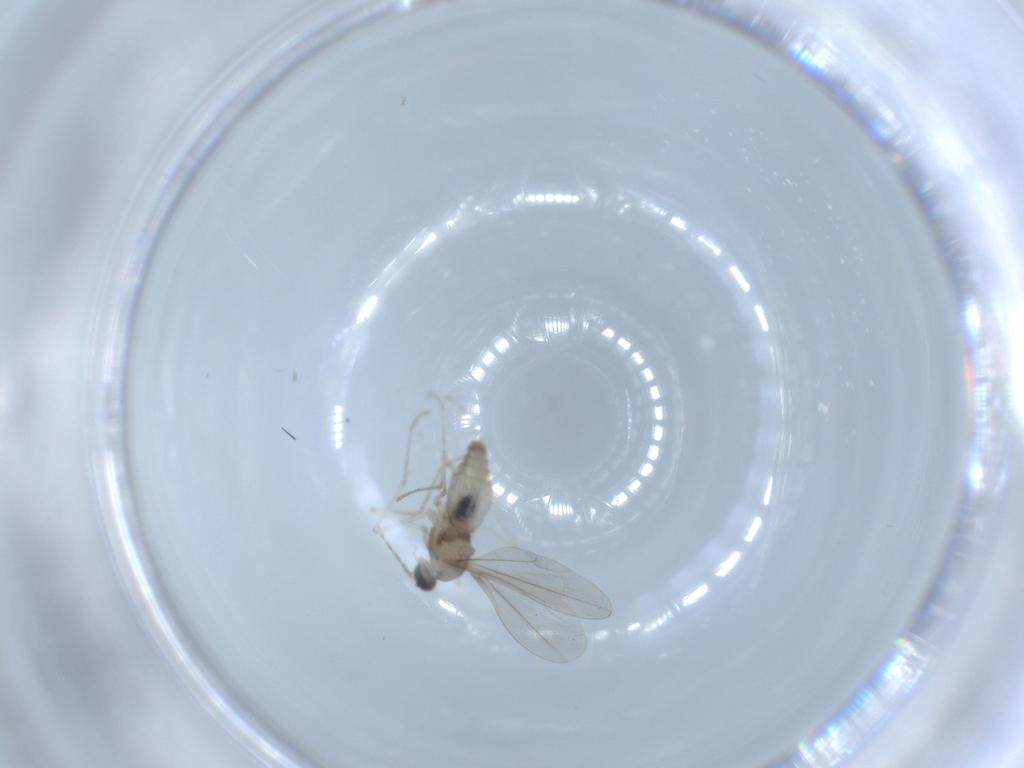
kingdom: Animalia
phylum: Arthropoda
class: Insecta
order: Diptera
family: Cecidomyiidae
